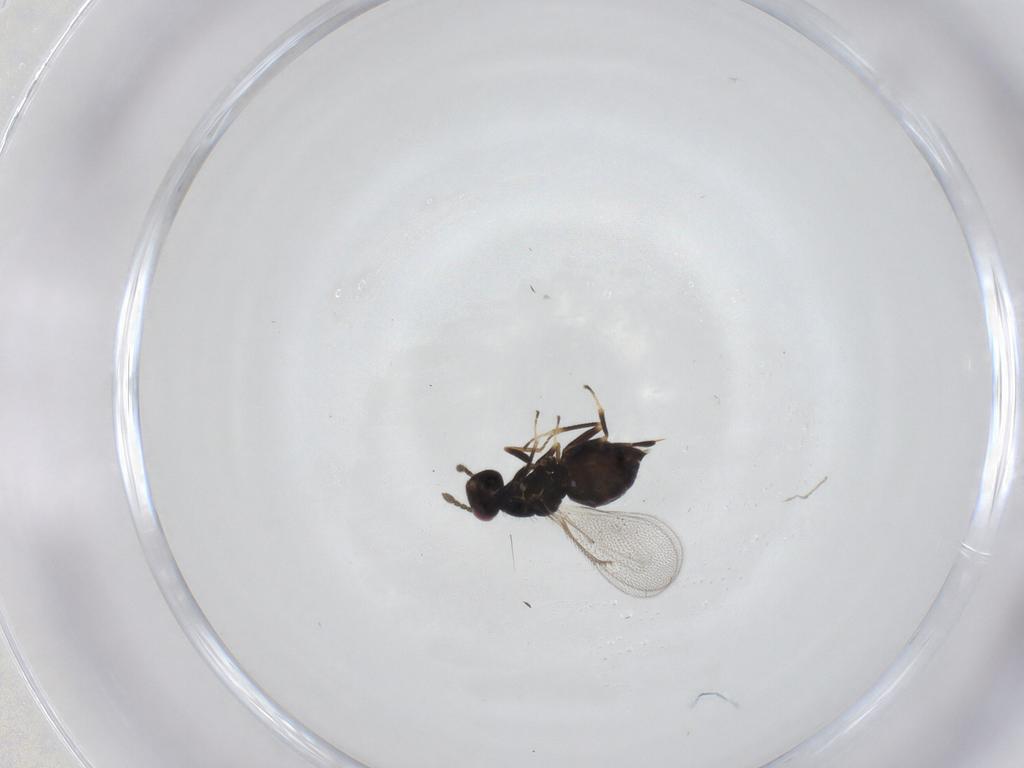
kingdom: Animalia
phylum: Arthropoda
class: Insecta
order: Hymenoptera
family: Eulophidae
